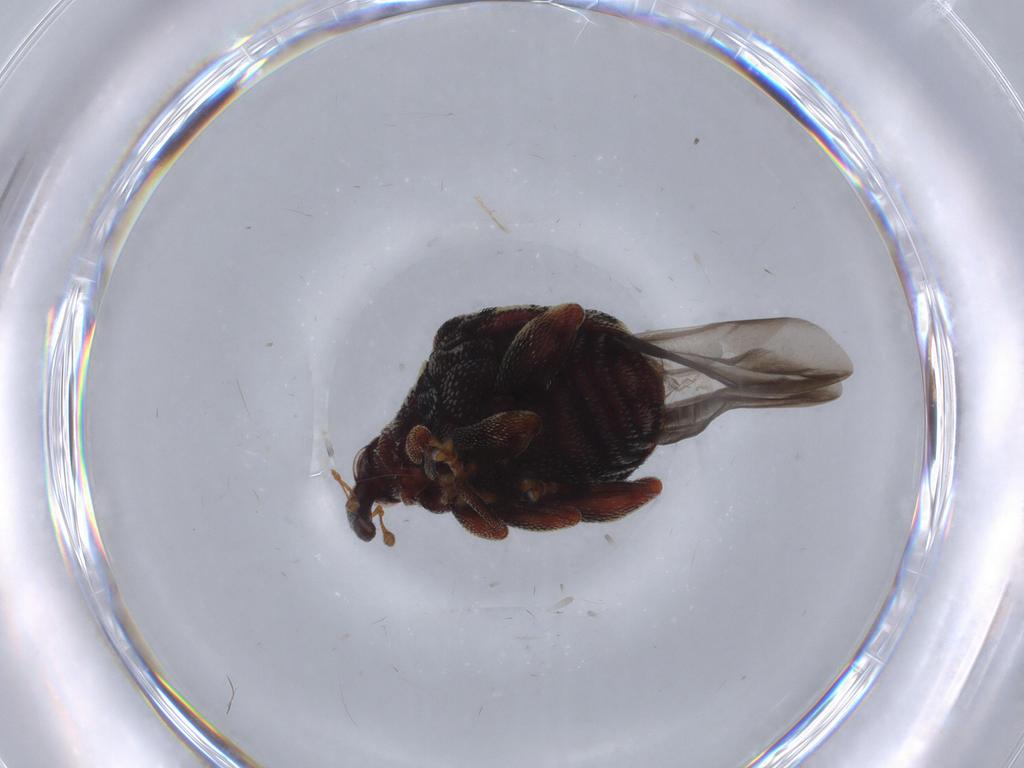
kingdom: Animalia
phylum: Arthropoda
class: Insecta
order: Coleoptera
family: Curculionidae
